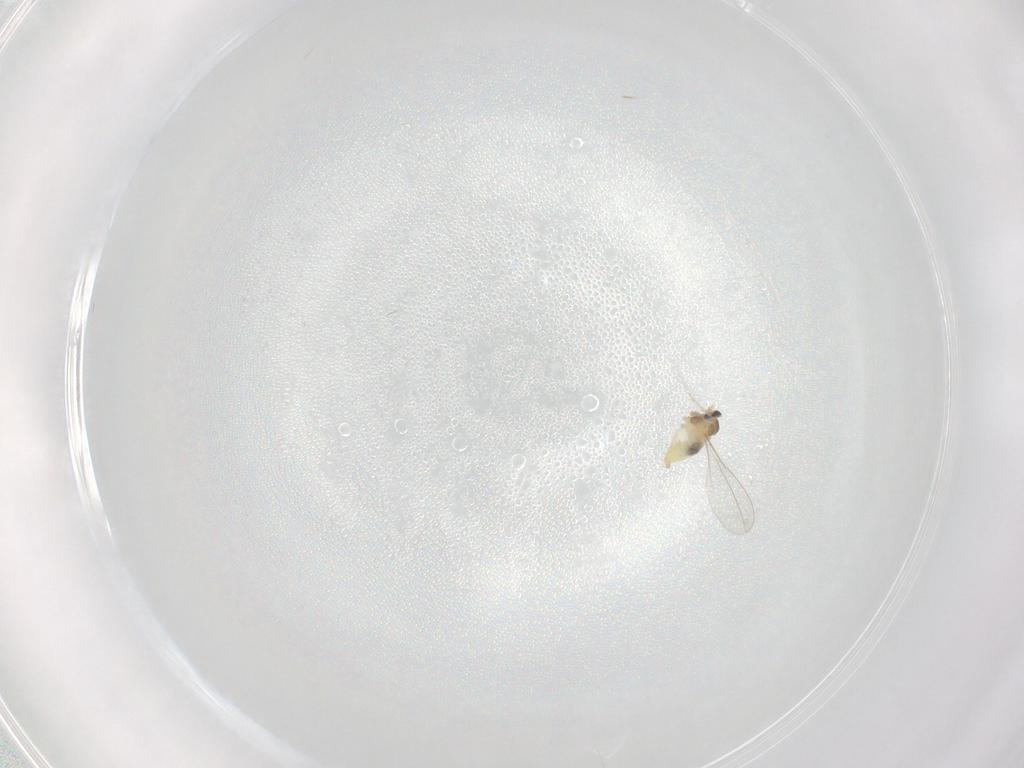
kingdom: Animalia
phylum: Arthropoda
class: Insecta
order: Diptera
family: Cecidomyiidae
